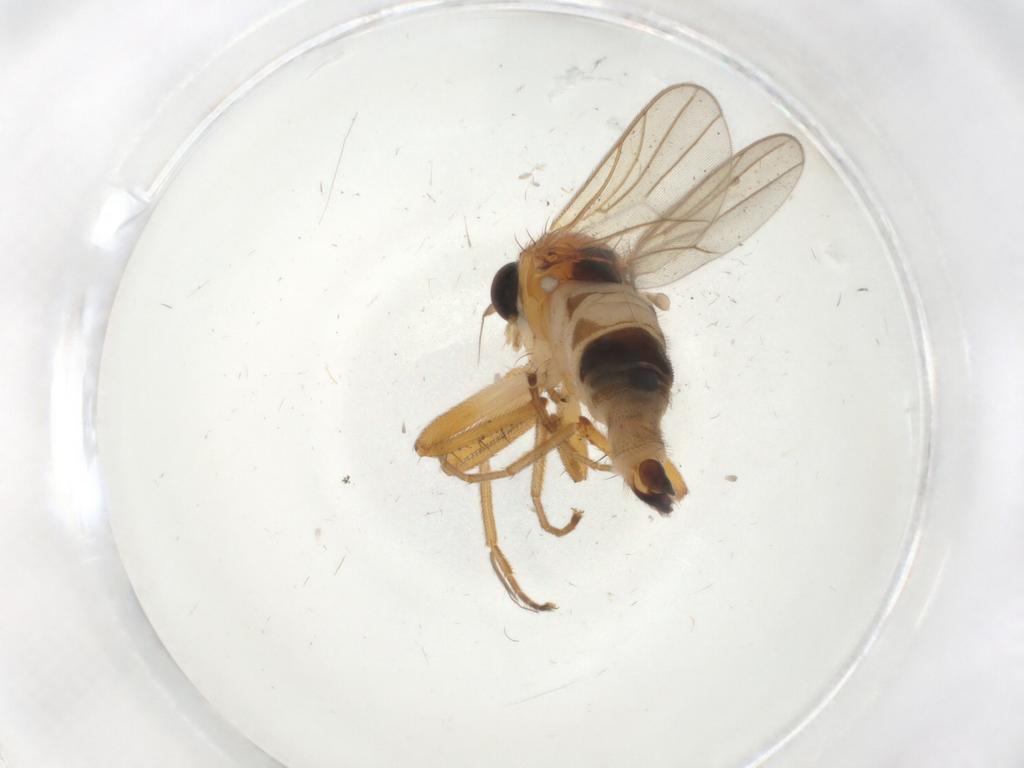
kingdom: Animalia
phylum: Arthropoda
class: Insecta
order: Diptera
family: Hybotidae
